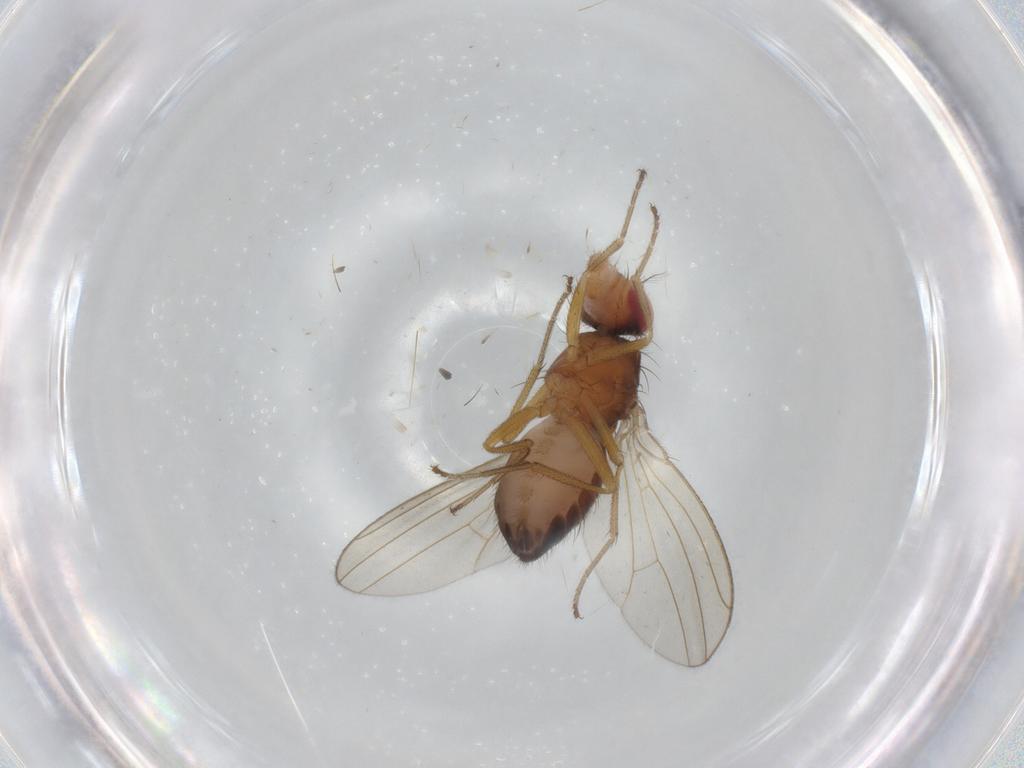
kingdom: Animalia
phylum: Arthropoda
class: Insecta
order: Diptera
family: Drosophilidae
